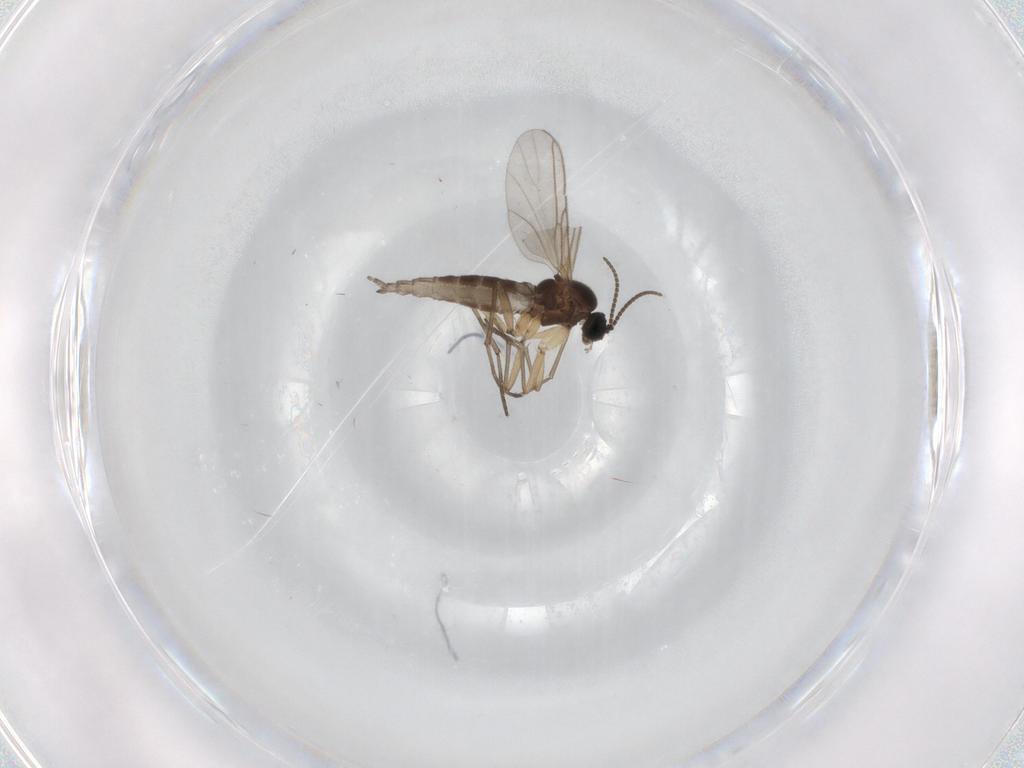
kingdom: Animalia
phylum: Arthropoda
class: Insecta
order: Diptera
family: Sciaridae
